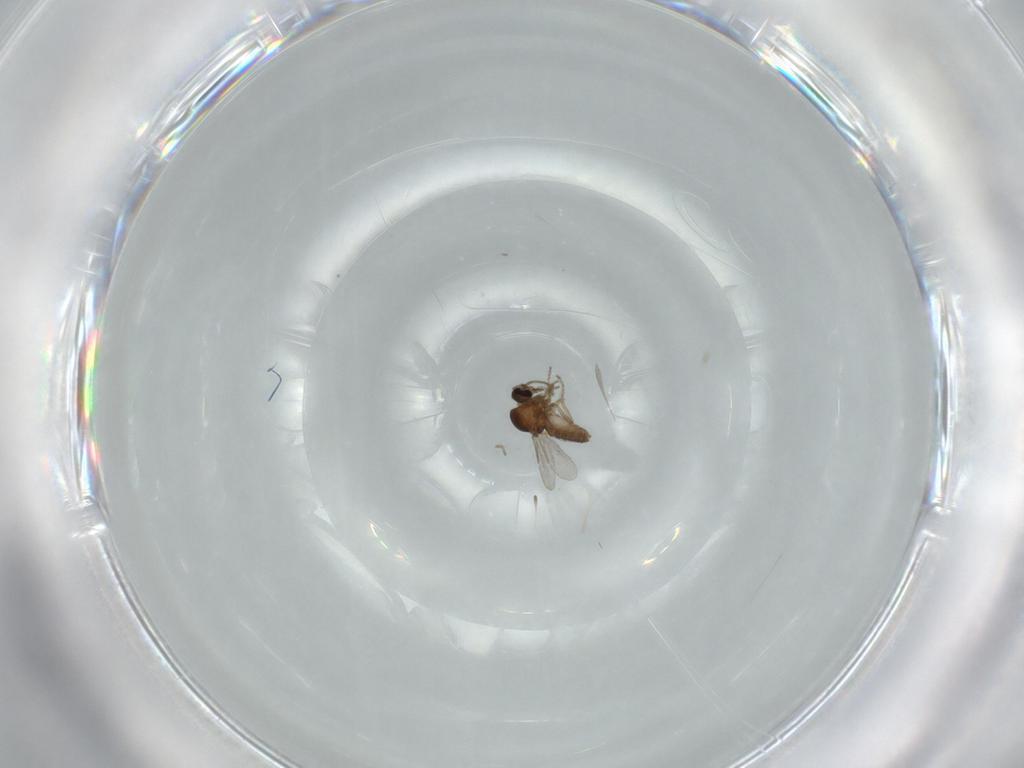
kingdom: Animalia
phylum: Arthropoda
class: Insecta
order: Diptera
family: Ceratopogonidae
